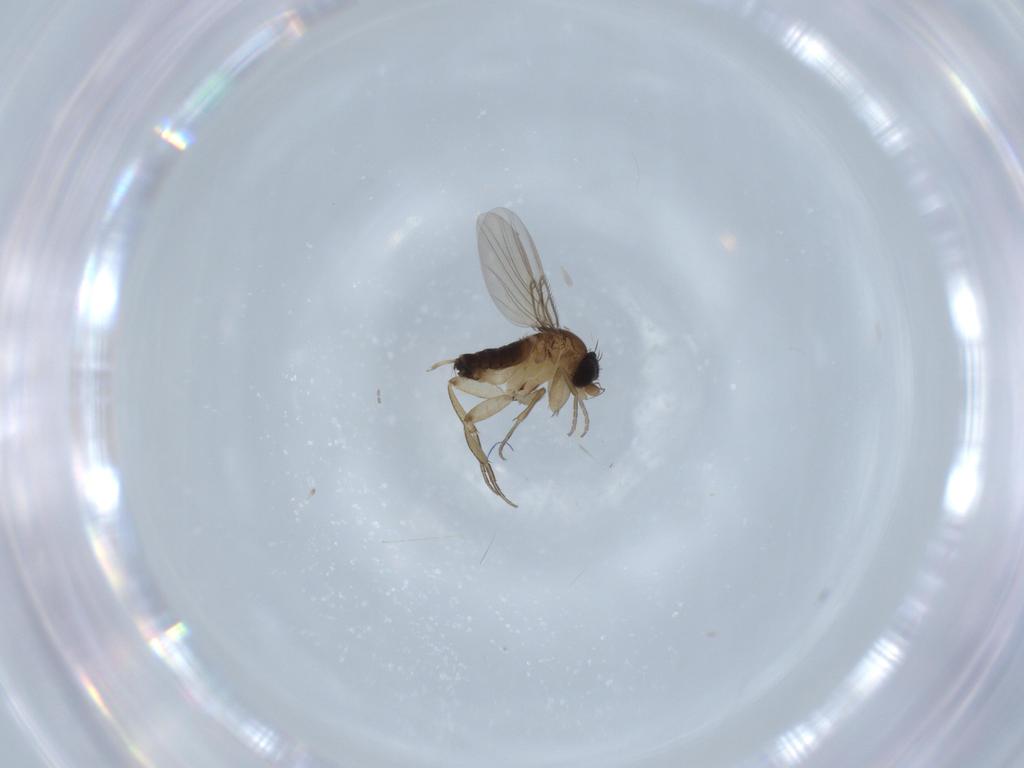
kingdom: Animalia
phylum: Arthropoda
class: Insecta
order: Diptera
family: Phoridae
